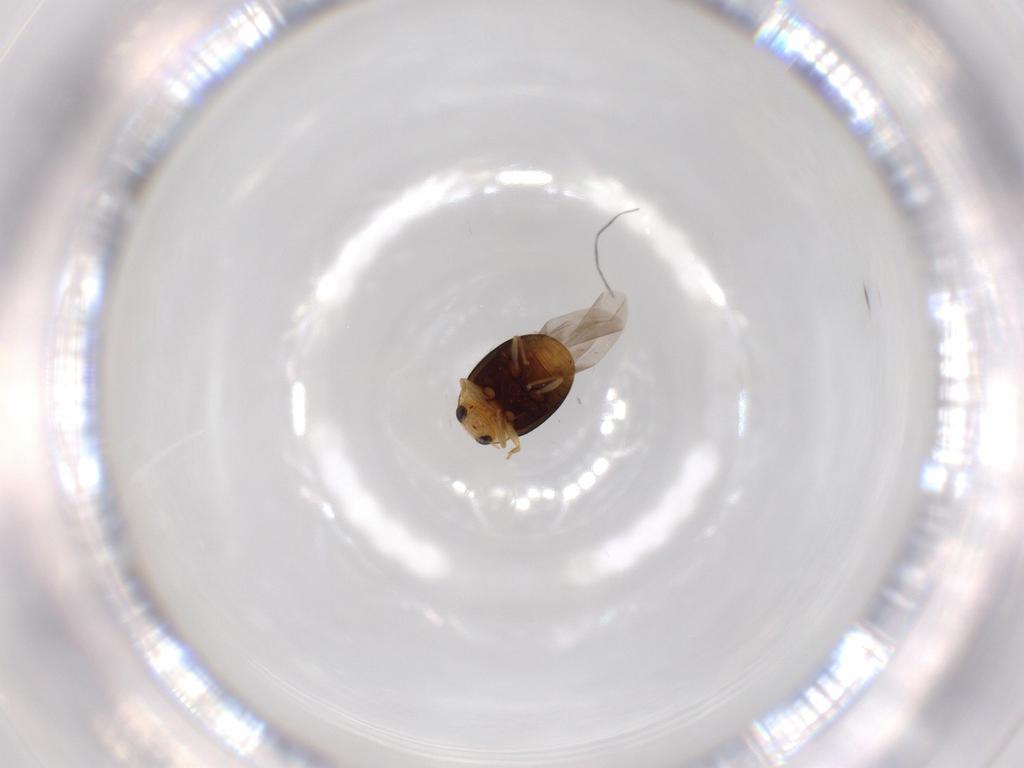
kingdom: Animalia
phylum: Arthropoda
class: Insecta
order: Coleoptera
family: Coccinellidae
